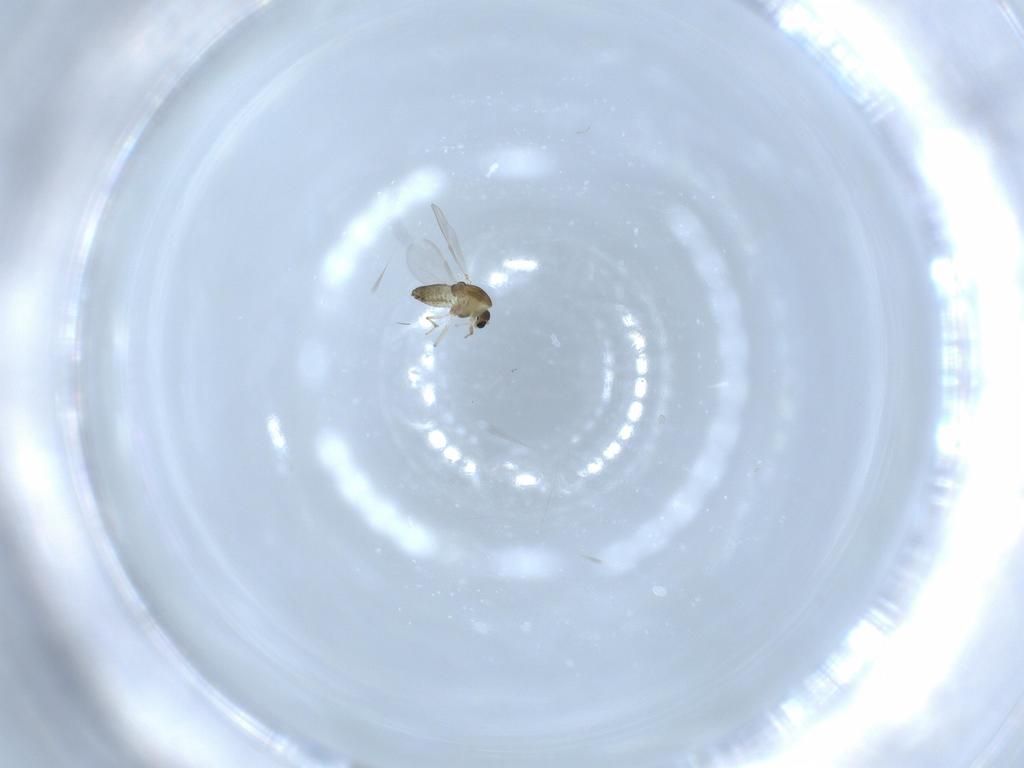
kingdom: Animalia
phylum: Arthropoda
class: Insecta
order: Diptera
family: Chironomidae
